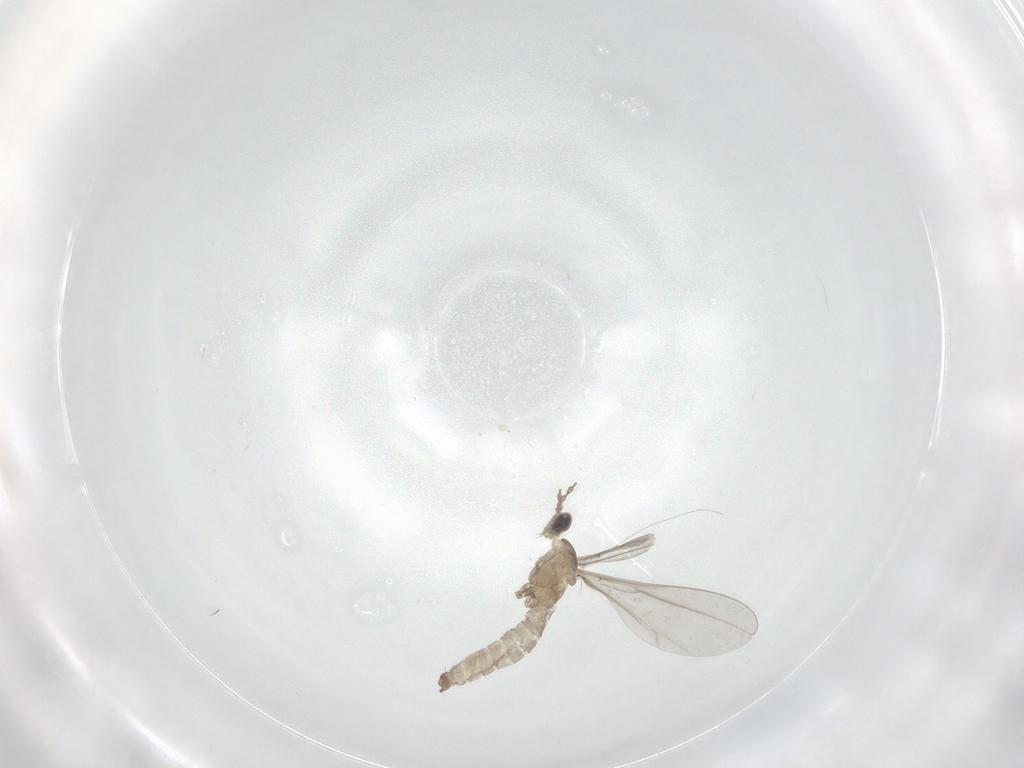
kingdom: Animalia
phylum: Arthropoda
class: Insecta
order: Diptera
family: Cecidomyiidae
